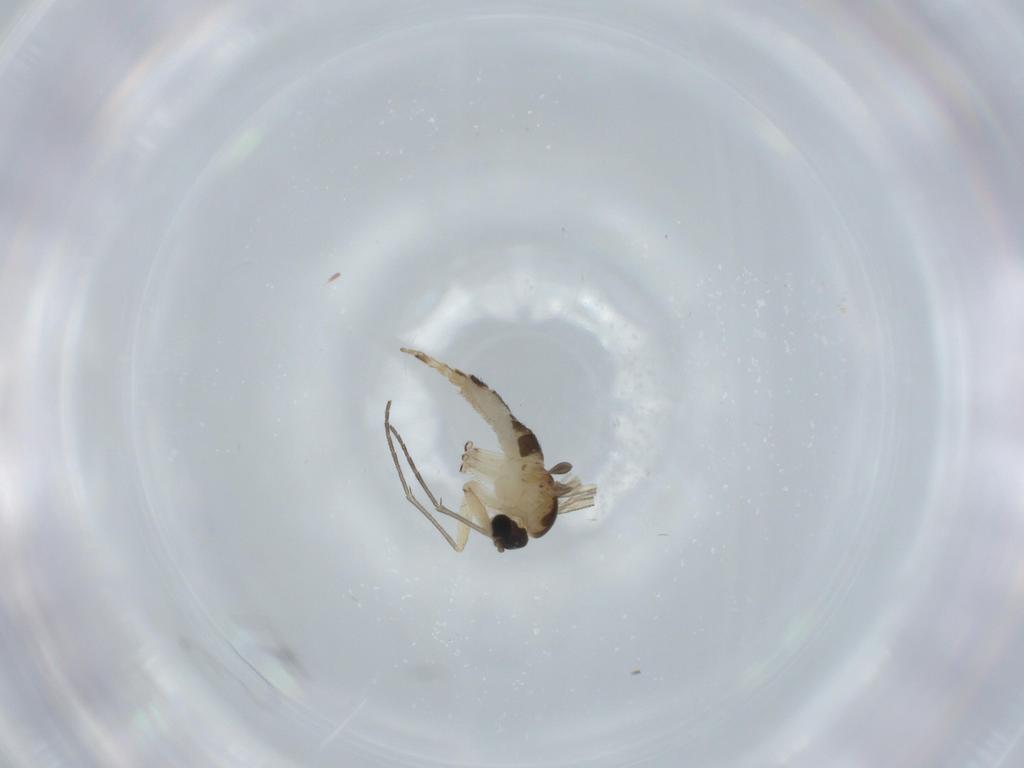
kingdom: Animalia
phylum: Arthropoda
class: Insecta
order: Diptera
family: Sciaridae
